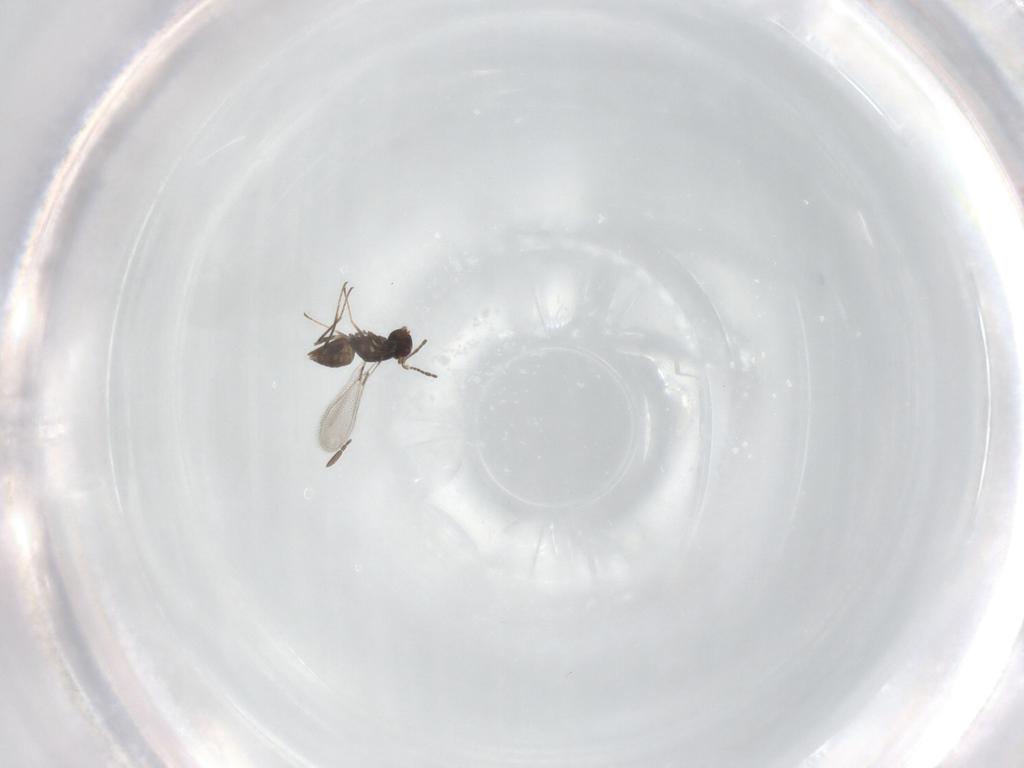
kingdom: Animalia
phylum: Arthropoda
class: Insecta
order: Hymenoptera
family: Mymaridae
